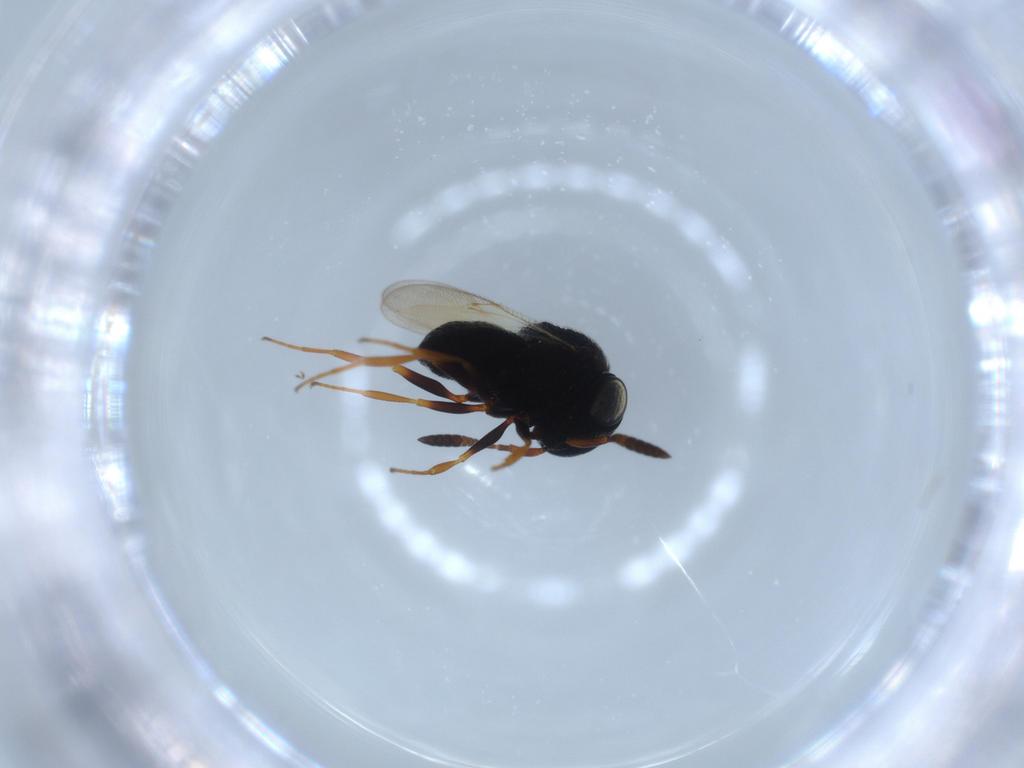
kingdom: Animalia
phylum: Arthropoda
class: Insecta
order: Hymenoptera
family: Scelionidae
